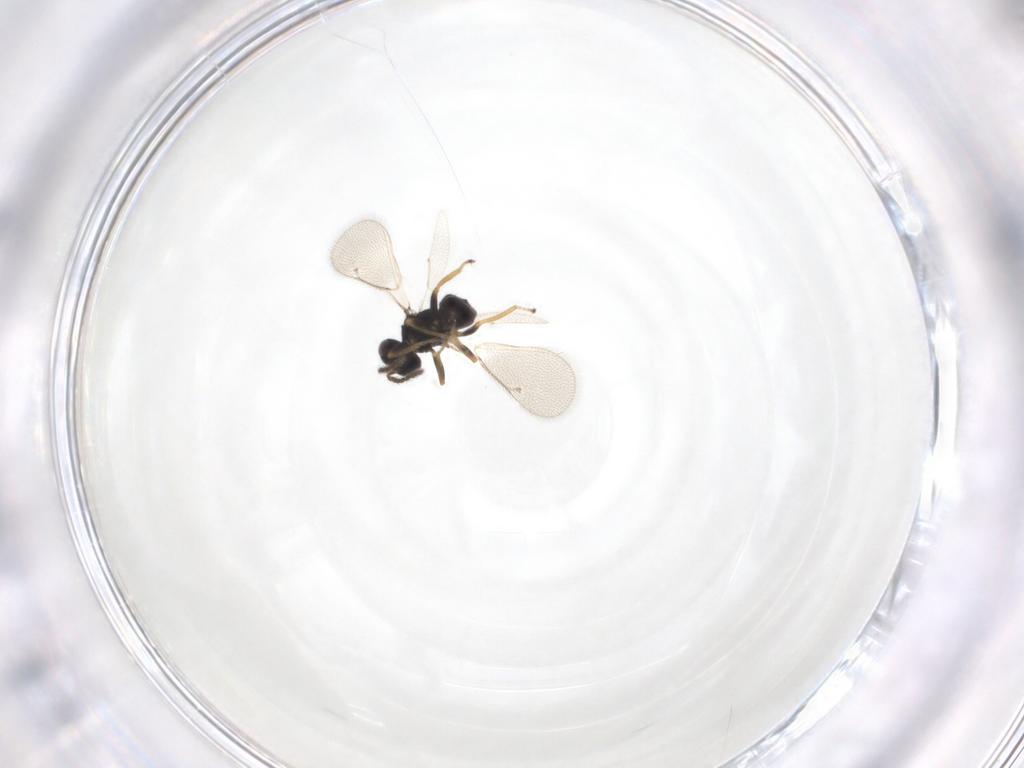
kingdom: Animalia
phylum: Arthropoda
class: Insecta
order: Hymenoptera
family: Eulophidae
